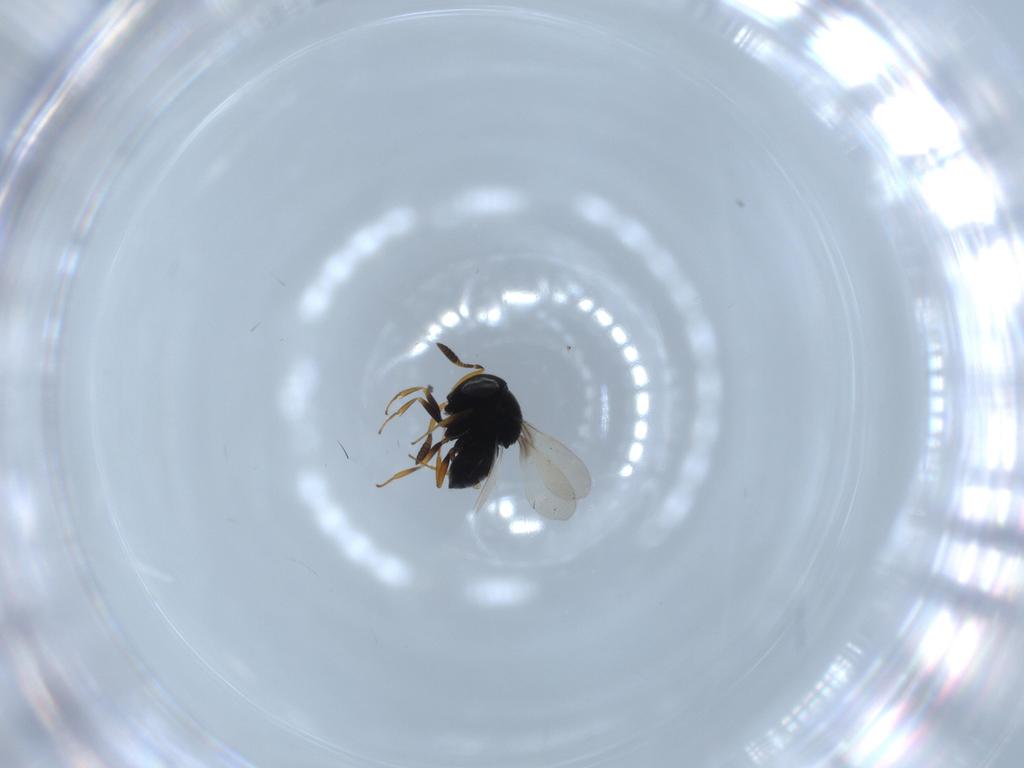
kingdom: Animalia
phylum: Arthropoda
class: Insecta
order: Hymenoptera
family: Scelionidae
